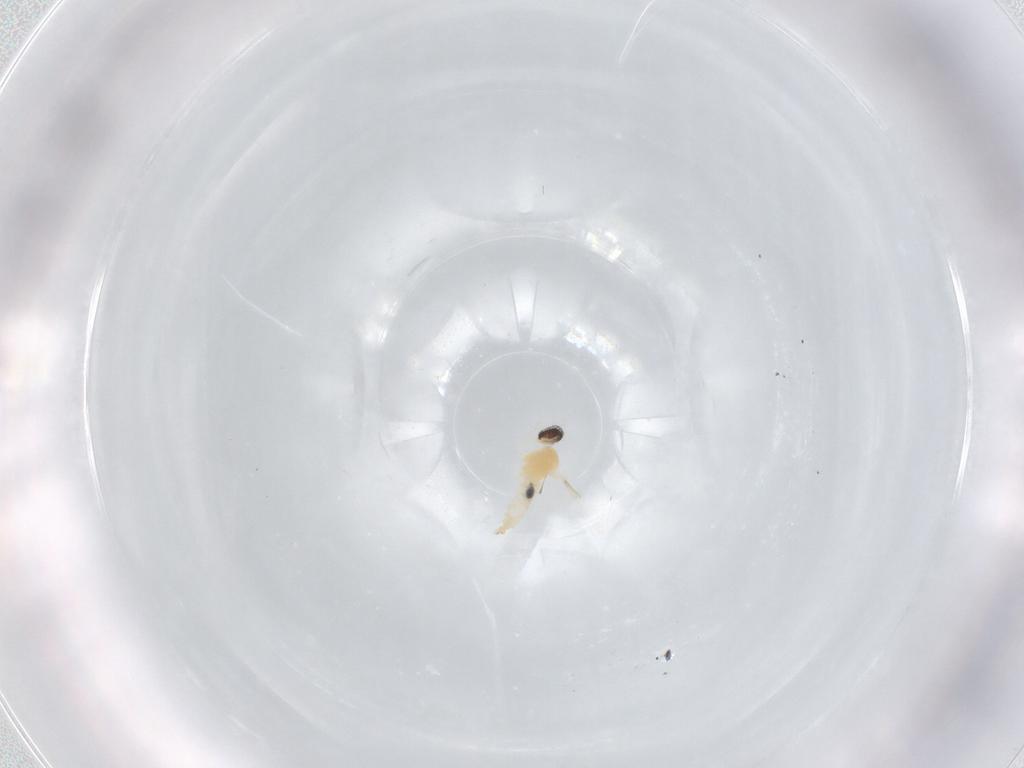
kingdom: Animalia
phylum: Arthropoda
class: Insecta
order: Diptera
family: Cecidomyiidae
